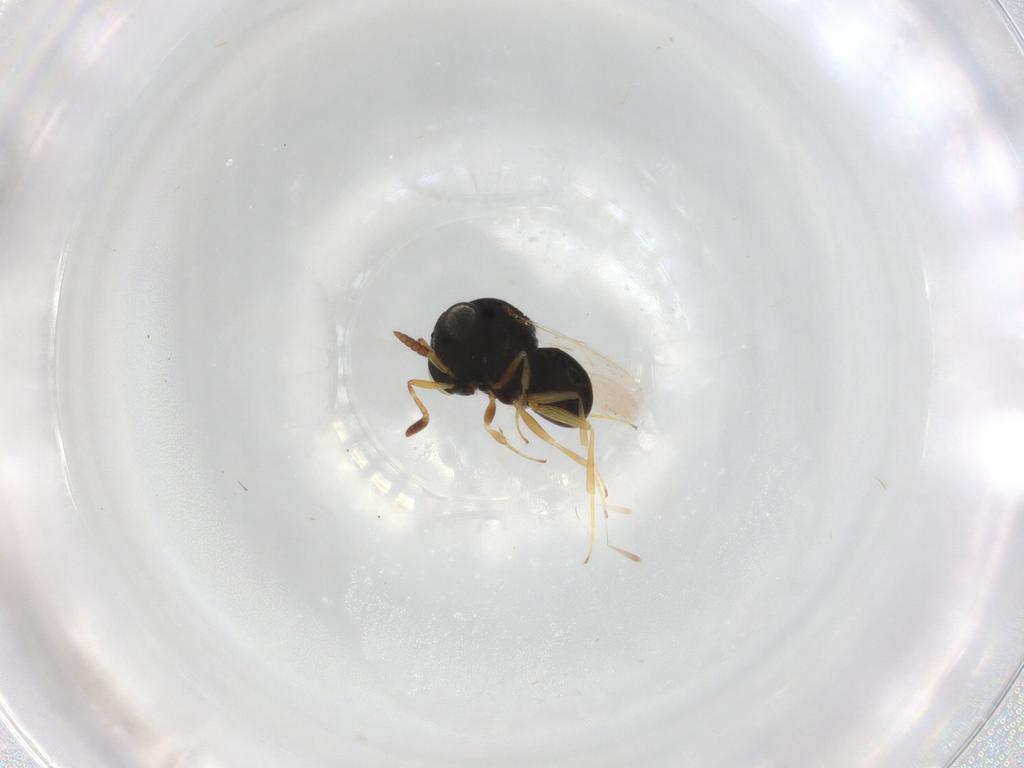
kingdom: Animalia
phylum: Arthropoda
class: Insecta
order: Hymenoptera
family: Scelionidae
